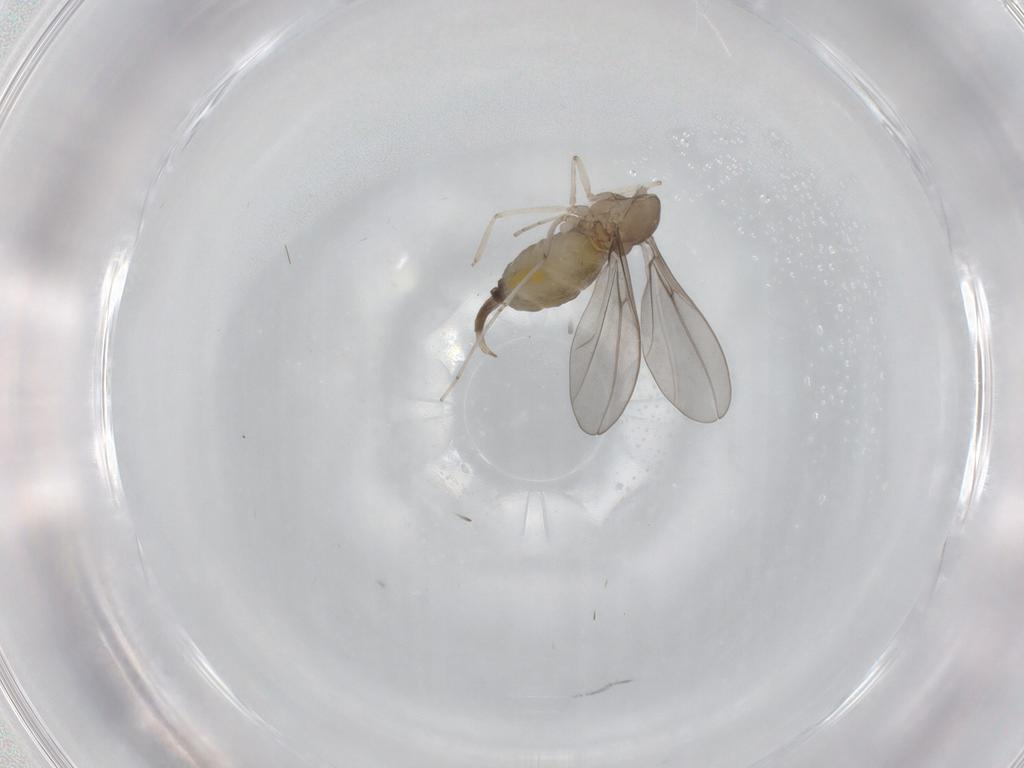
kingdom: Animalia
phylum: Arthropoda
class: Insecta
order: Diptera
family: Cecidomyiidae
